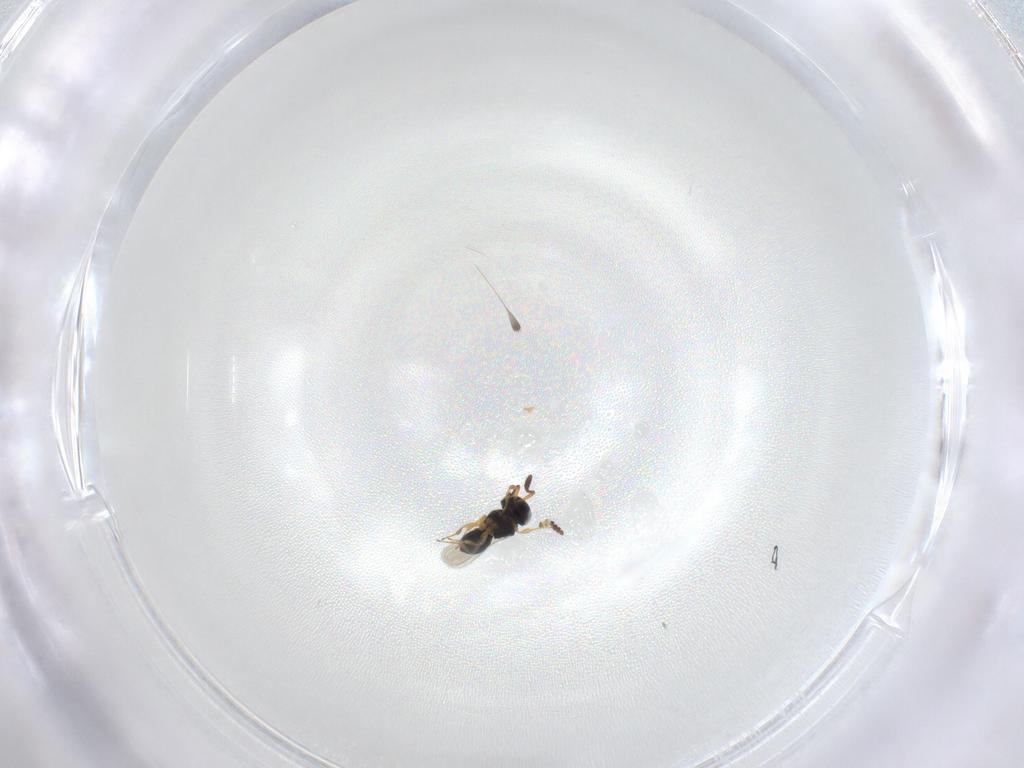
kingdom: Animalia
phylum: Arthropoda
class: Insecta
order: Hymenoptera
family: Scelionidae
